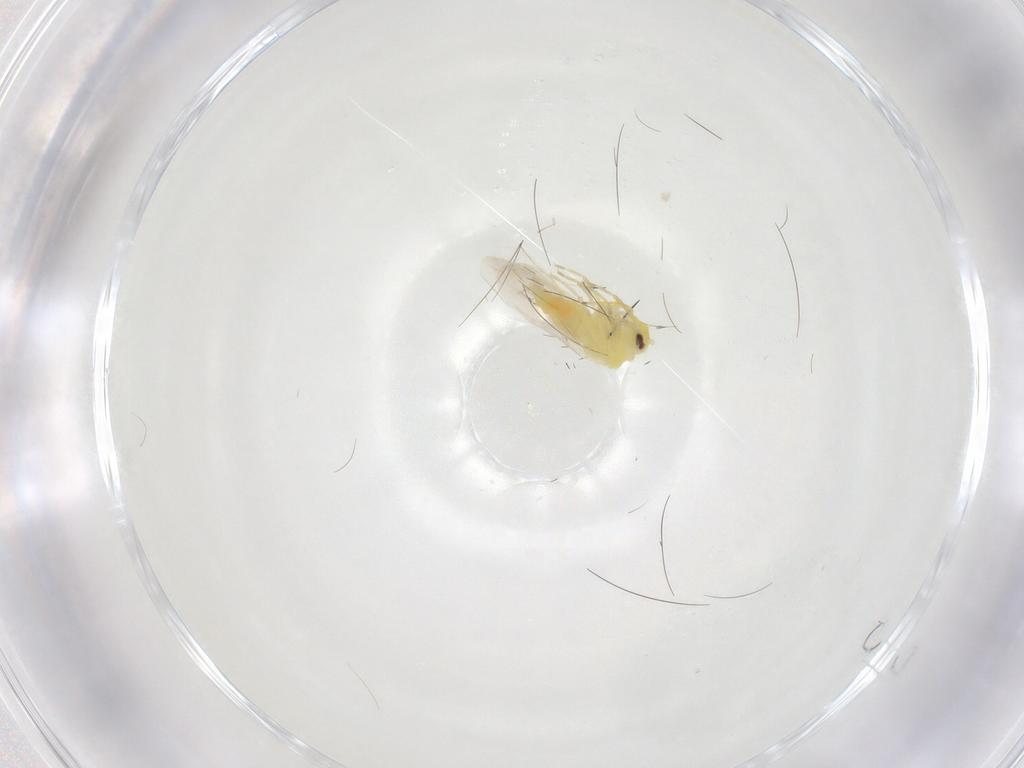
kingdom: Animalia
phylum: Arthropoda
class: Insecta
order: Hemiptera
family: Aleyrodidae
